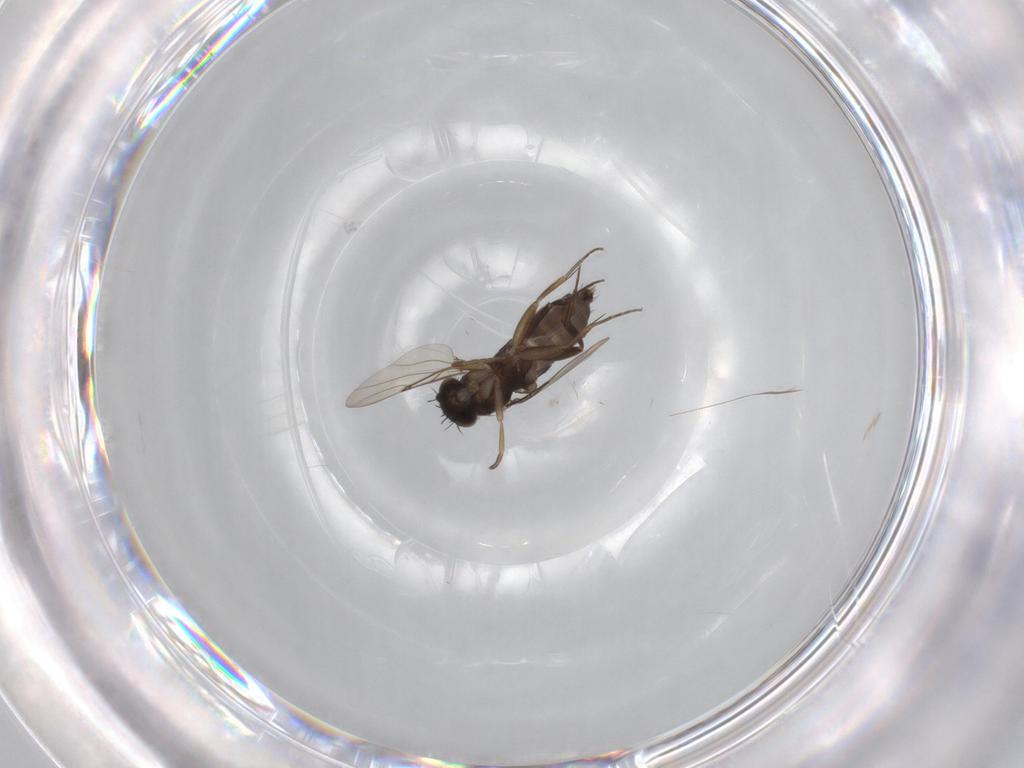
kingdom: Animalia
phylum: Arthropoda
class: Insecta
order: Diptera
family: Phoridae
